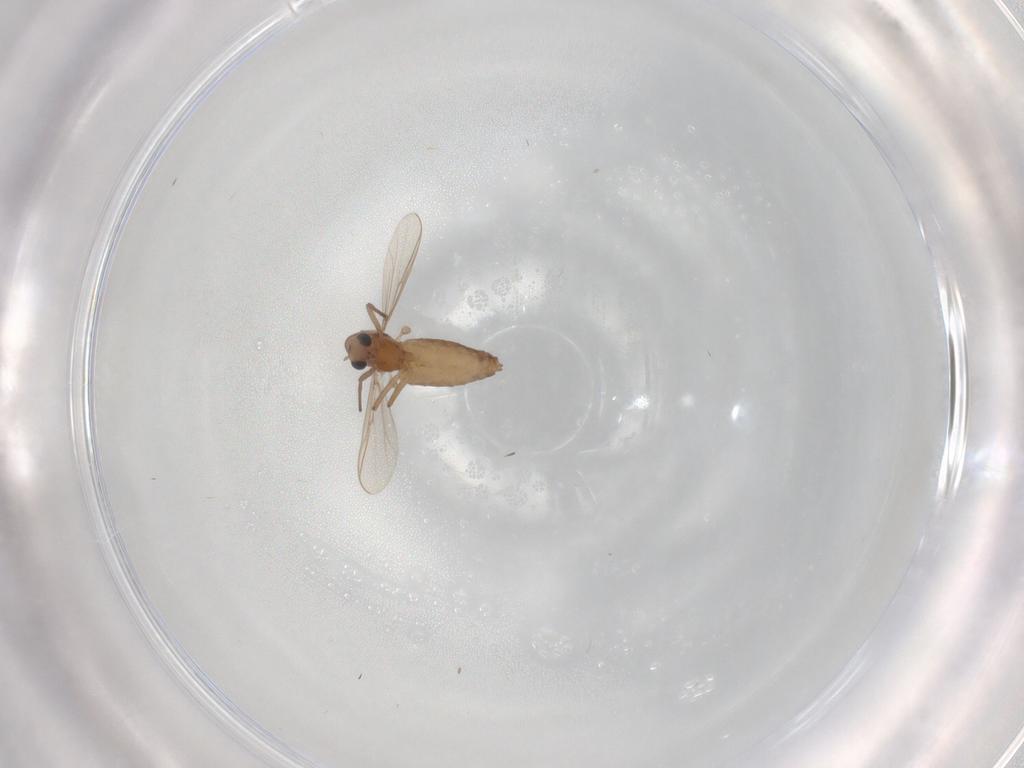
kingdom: Animalia
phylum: Arthropoda
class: Insecta
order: Diptera
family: Chironomidae
